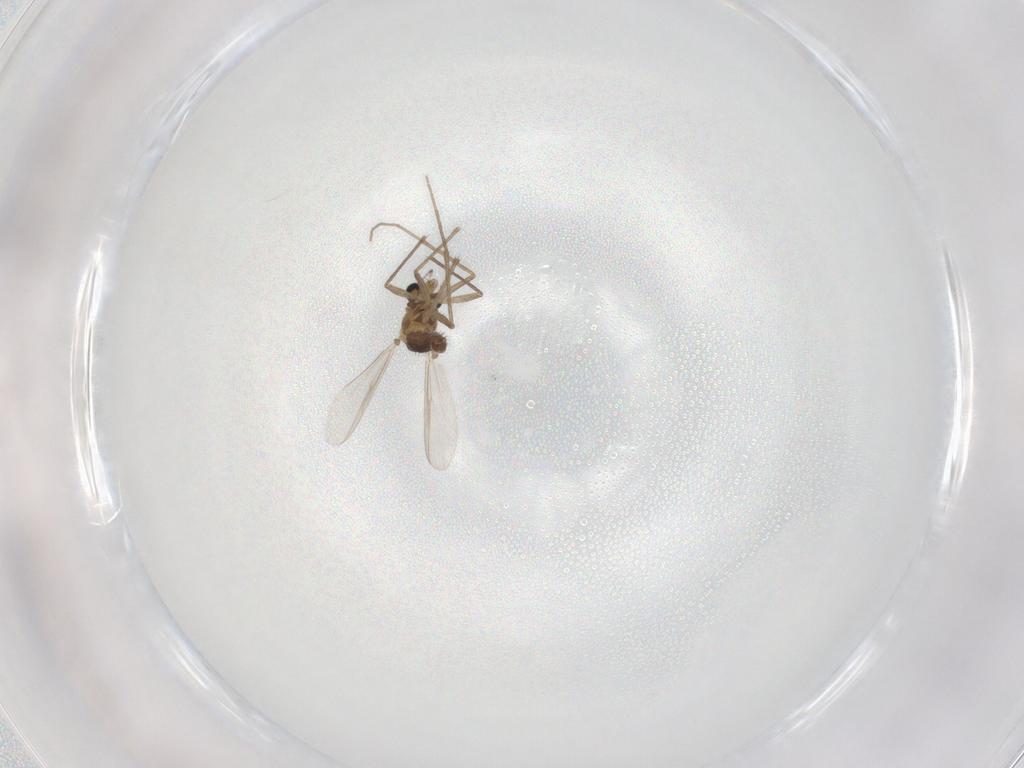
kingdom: Animalia
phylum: Arthropoda
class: Insecta
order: Diptera
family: Chironomidae
